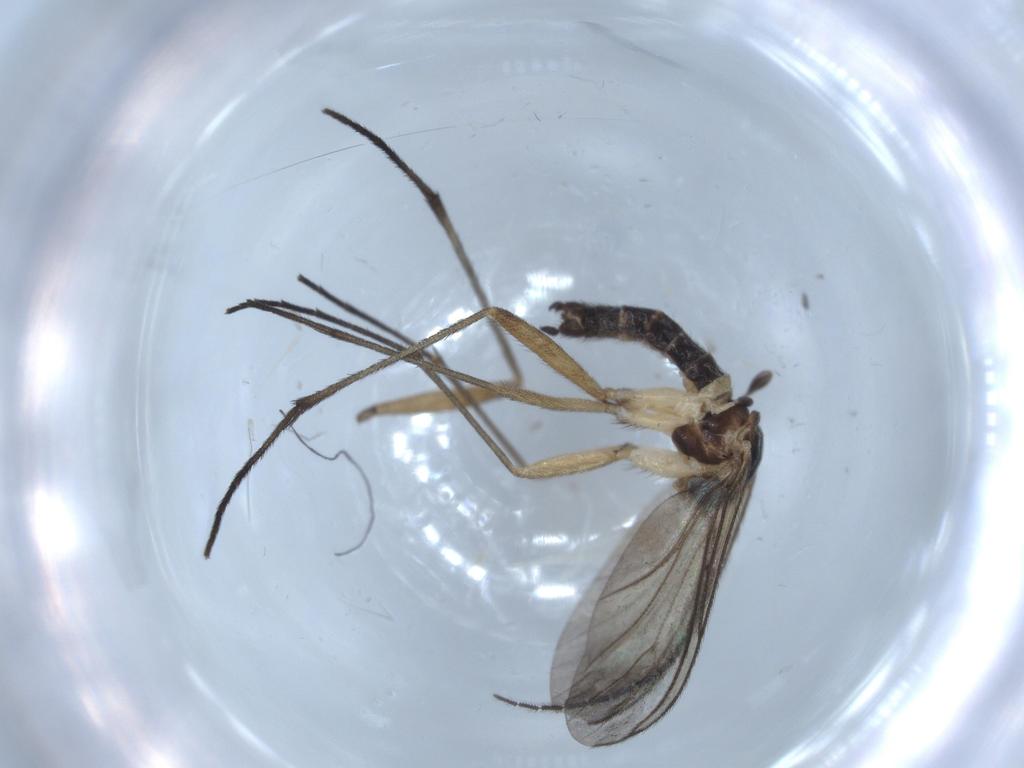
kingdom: Animalia
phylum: Arthropoda
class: Insecta
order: Diptera
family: Sciaridae
